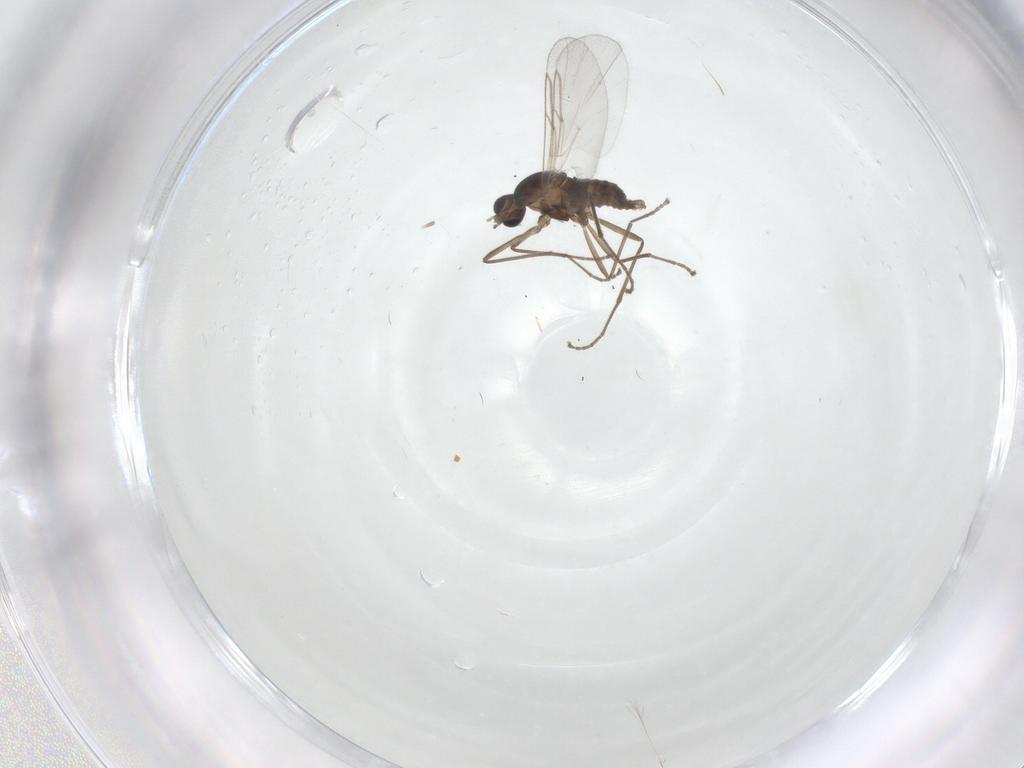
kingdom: Animalia
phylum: Arthropoda
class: Insecta
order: Diptera
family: Cecidomyiidae
